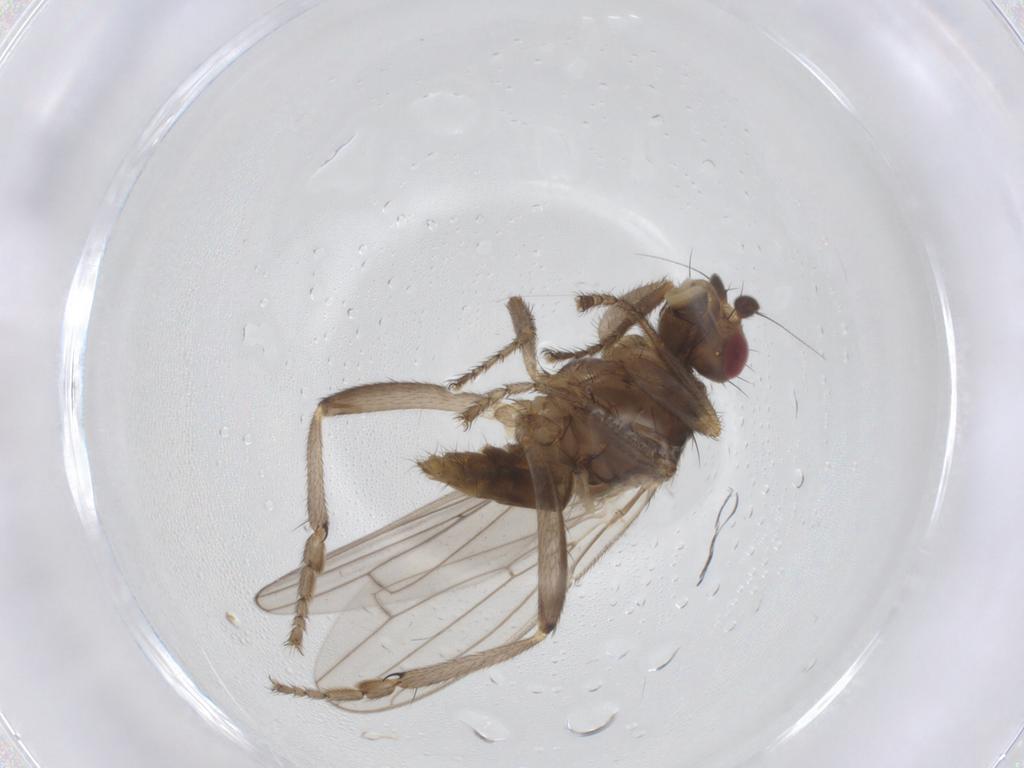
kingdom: Animalia
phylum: Arthropoda
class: Insecta
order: Diptera
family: Sphaeroceridae
